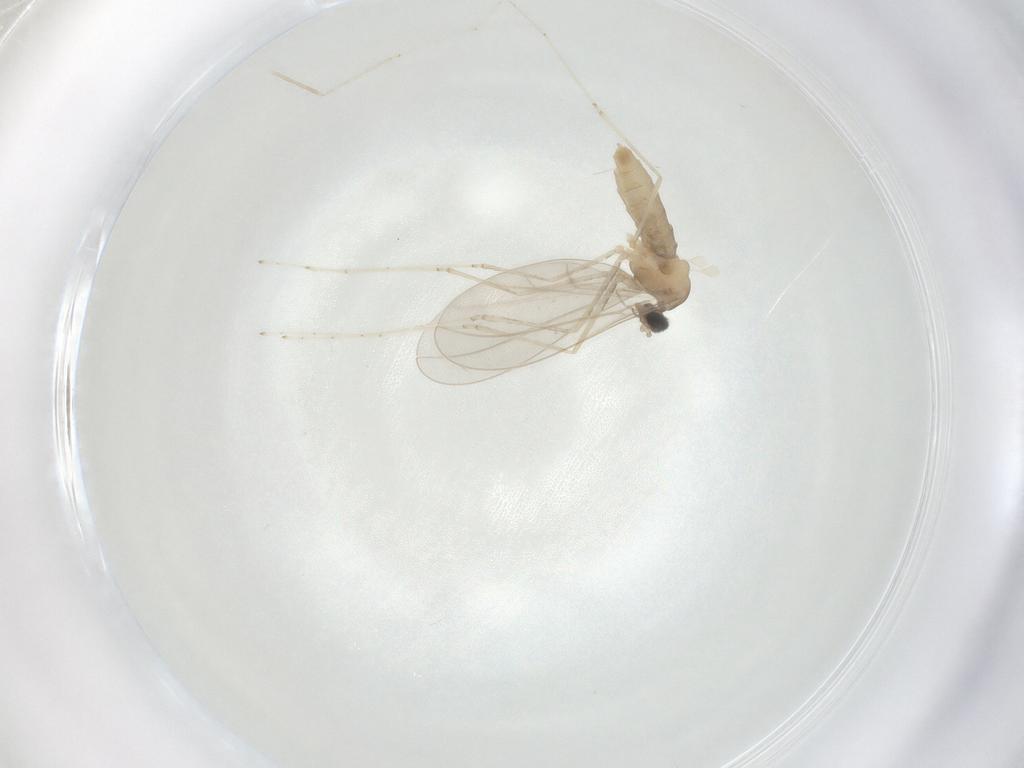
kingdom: Animalia
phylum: Arthropoda
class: Insecta
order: Diptera
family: Cecidomyiidae
